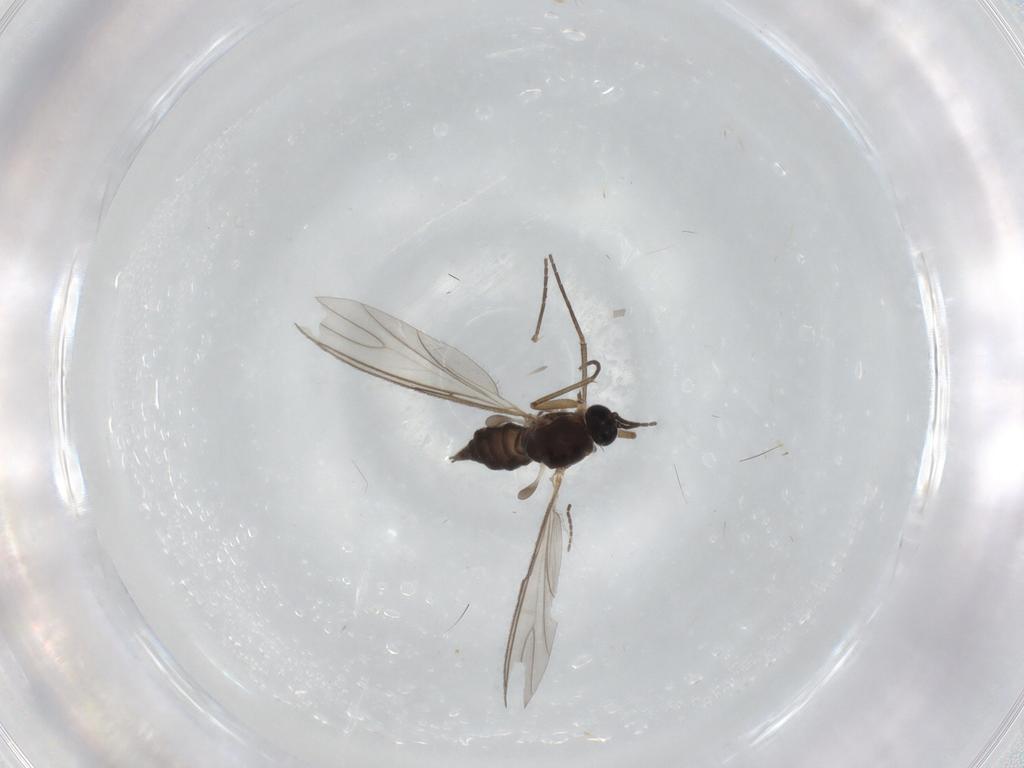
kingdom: Animalia
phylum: Arthropoda
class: Insecta
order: Diptera
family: Sciaridae
